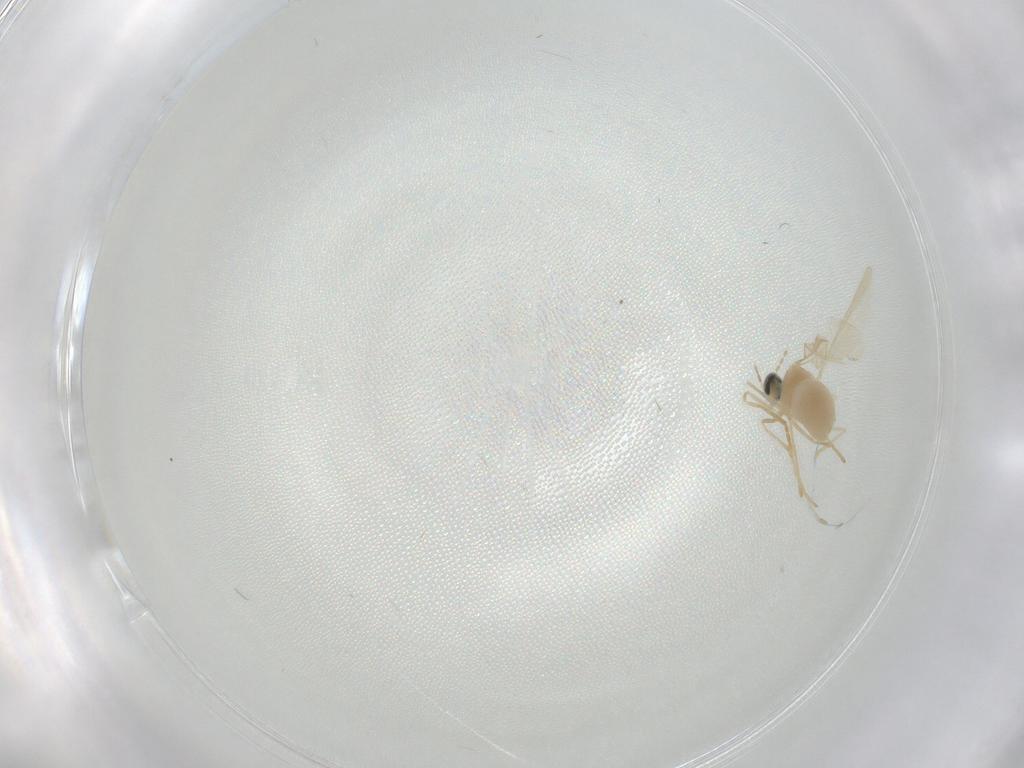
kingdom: Animalia
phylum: Arthropoda
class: Insecta
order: Diptera
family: Cecidomyiidae
